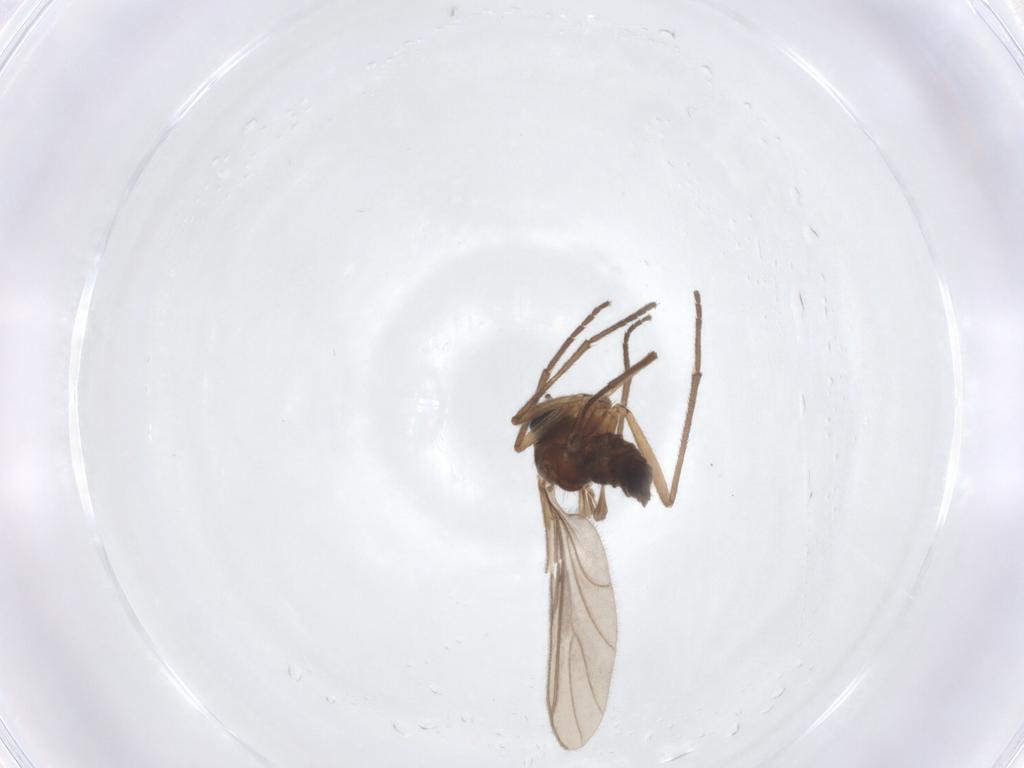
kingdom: Animalia
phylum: Arthropoda
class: Insecta
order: Diptera
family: Sciaridae
